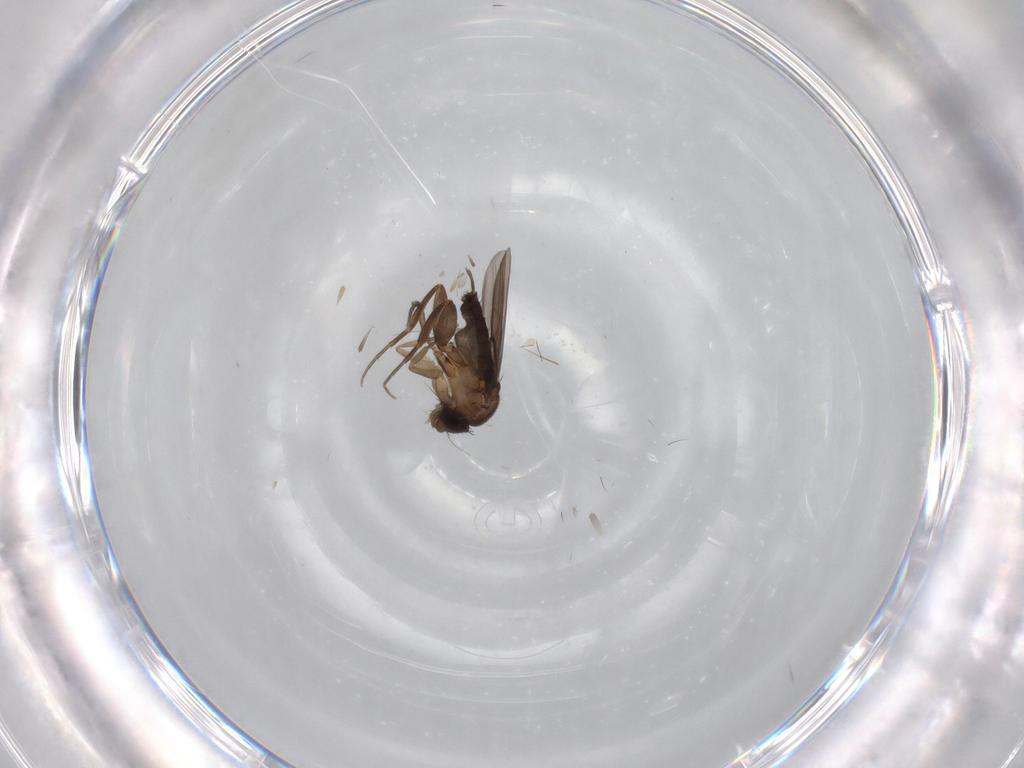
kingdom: Animalia
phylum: Arthropoda
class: Insecta
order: Diptera
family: Phoridae
